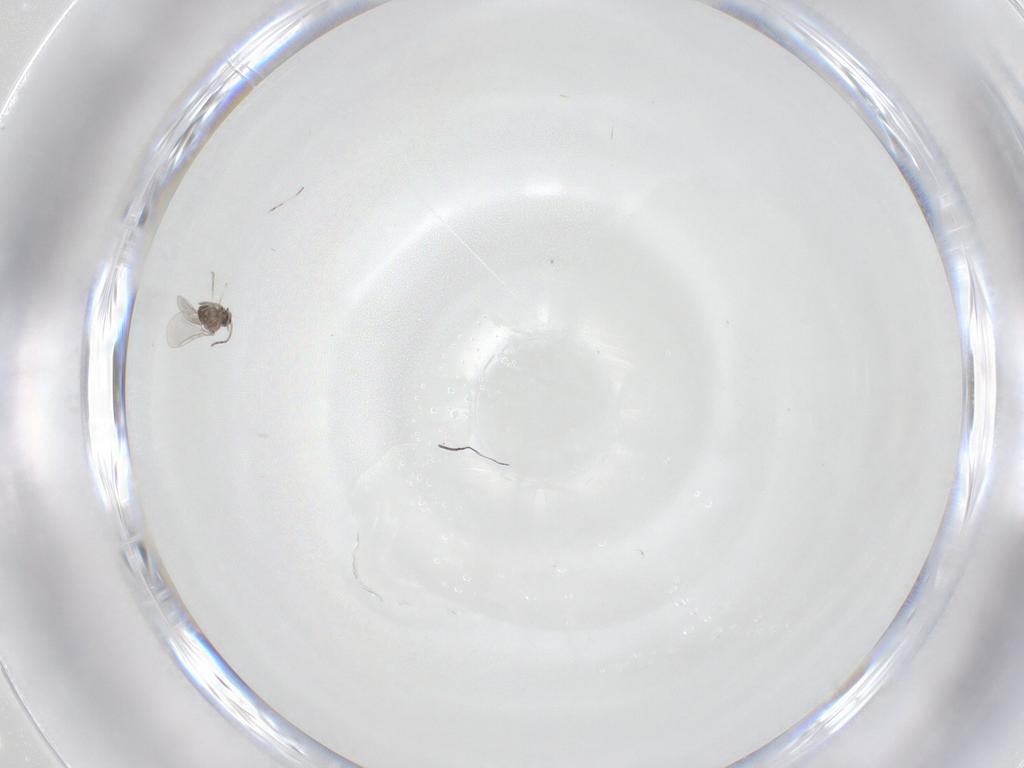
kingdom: Animalia
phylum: Arthropoda
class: Insecta
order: Diptera
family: Cecidomyiidae
